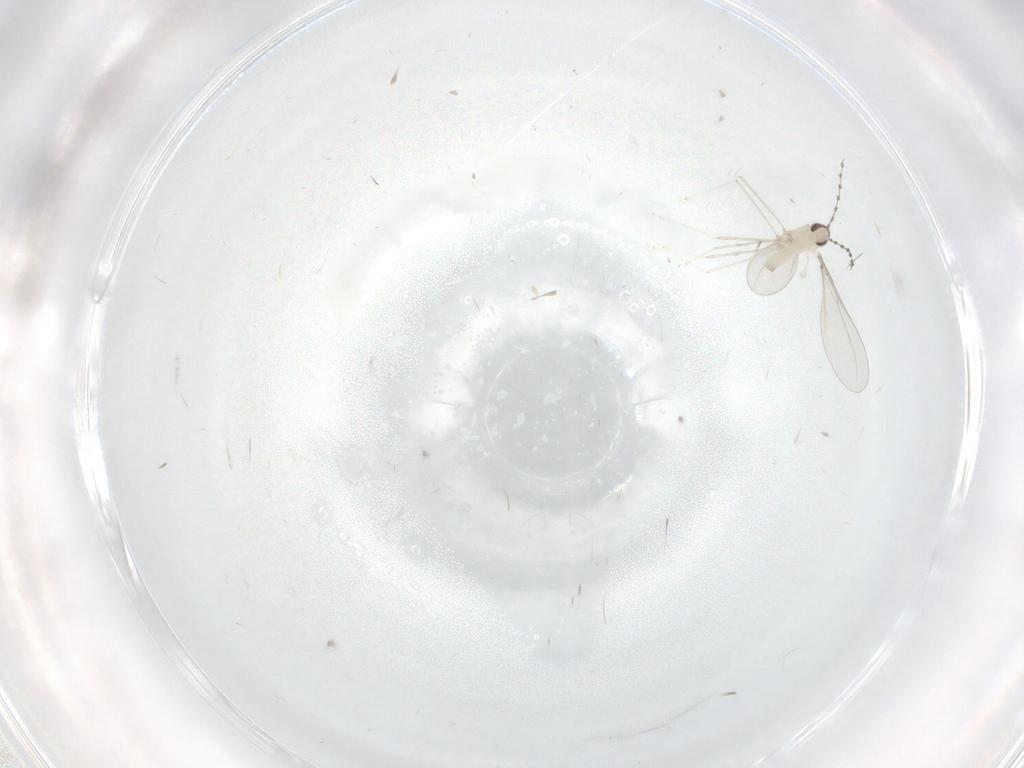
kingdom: Animalia
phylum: Arthropoda
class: Insecta
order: Diptera
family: Cecidomyiidae
